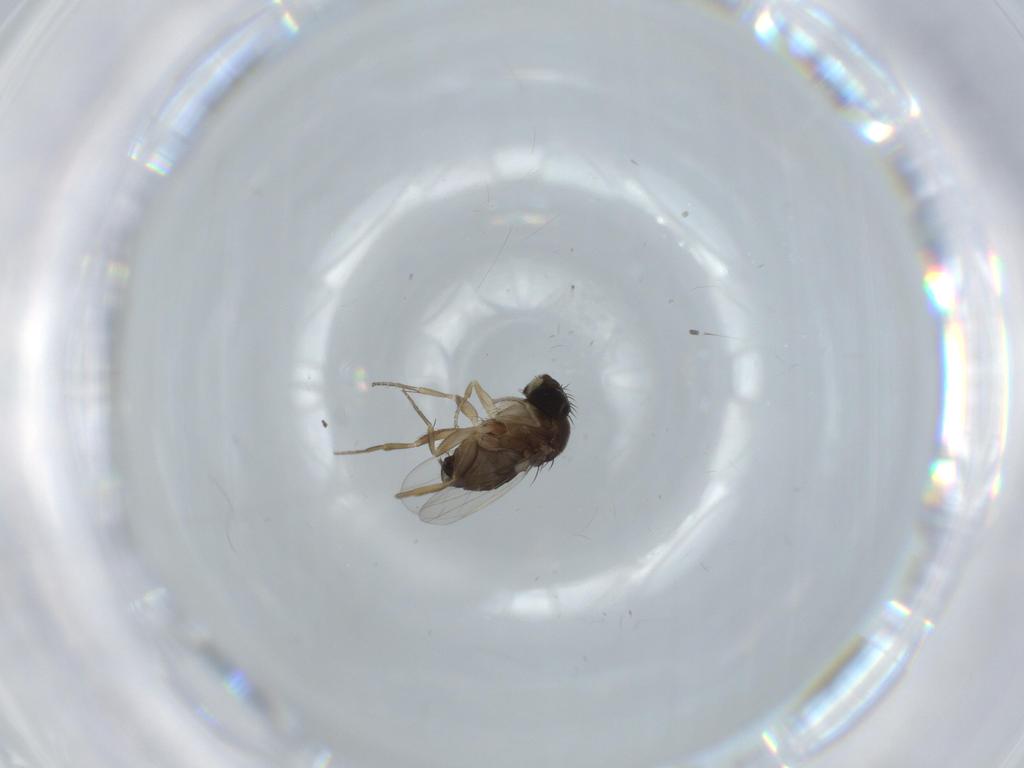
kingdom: Animalia
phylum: Arthropoda
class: Insecta
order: Diptera
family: Phoridae
